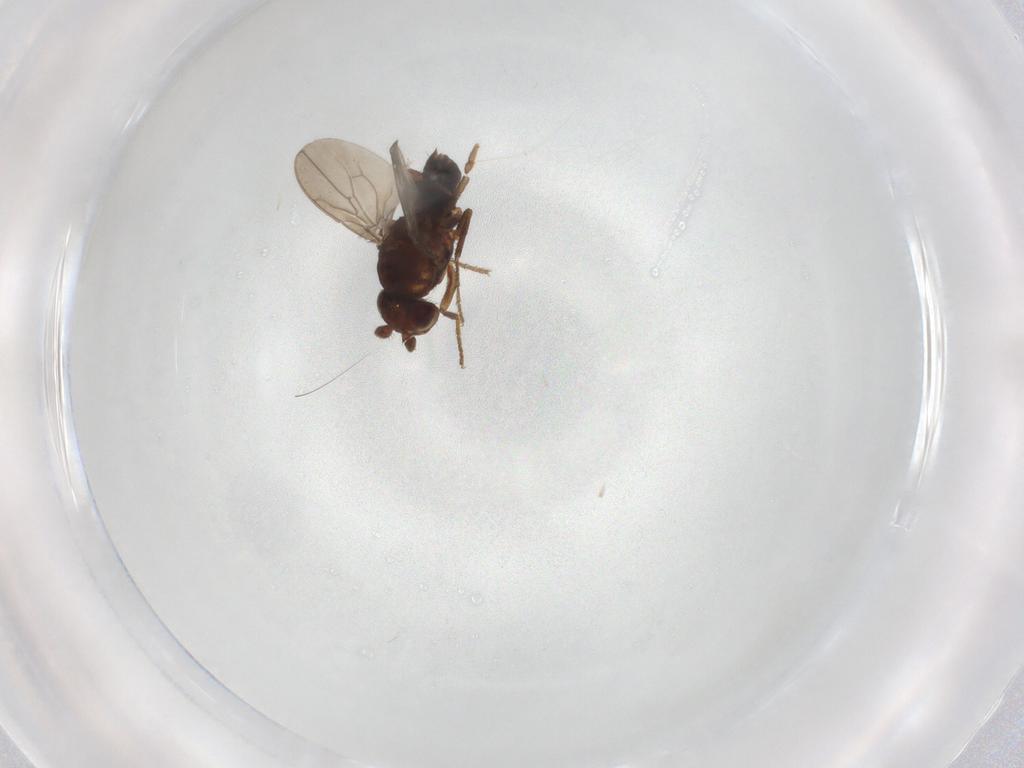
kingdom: Animalia
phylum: Arthropoda
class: Insecta
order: Diptera
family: Sphaeroceridae
